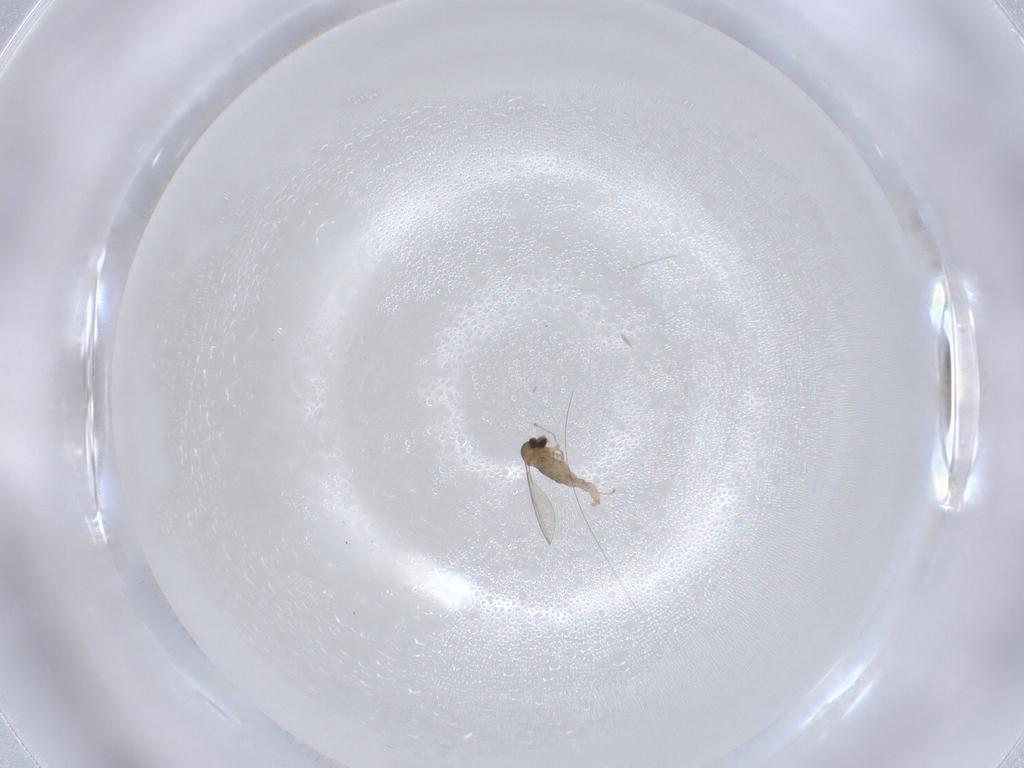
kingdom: Animalia
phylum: Arthropoda
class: Insecta
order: Diptera
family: Cecidomyiidae
